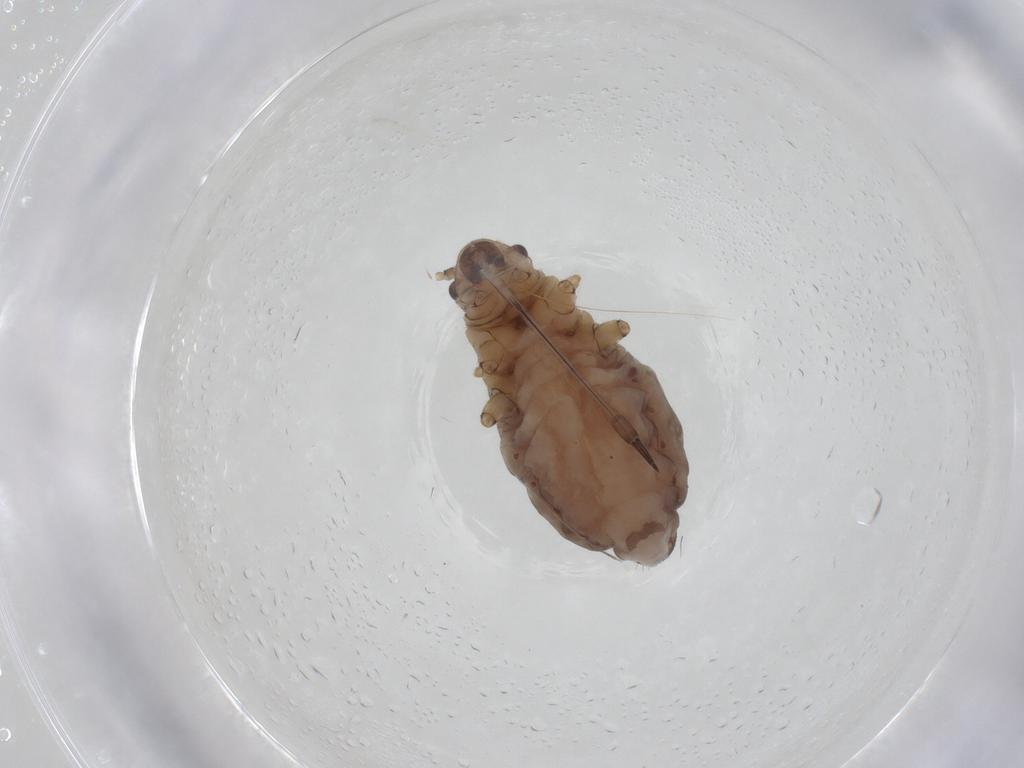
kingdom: Animalia
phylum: Arthropoda
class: Insecta
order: Hemiptera
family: Aphididae
